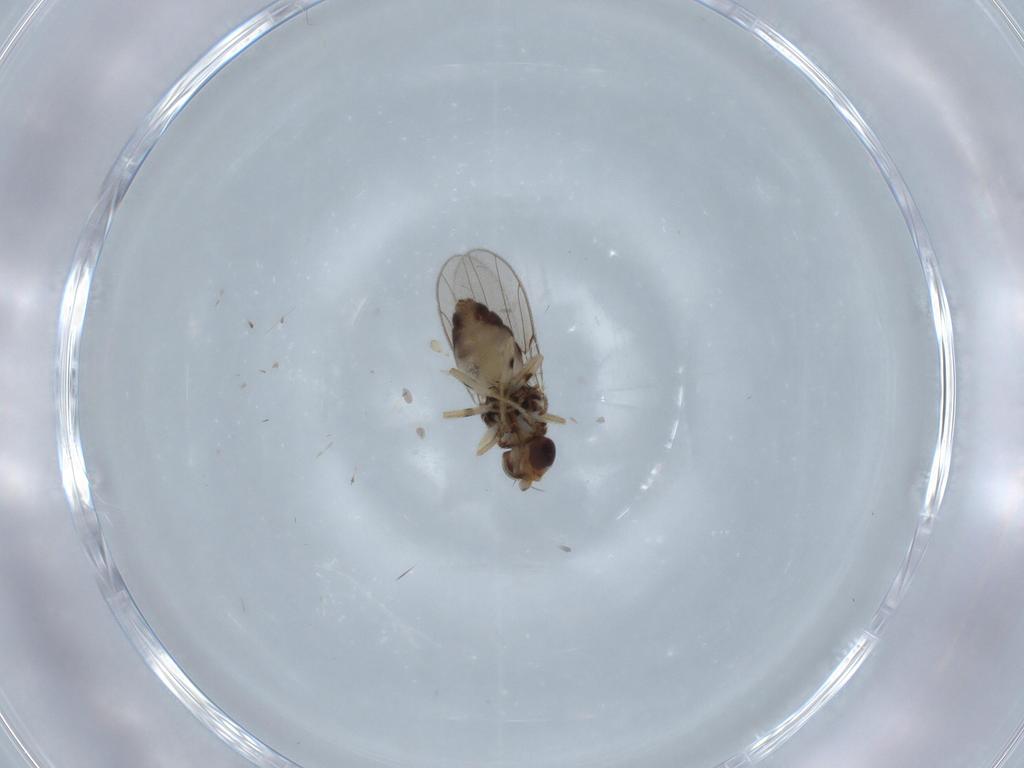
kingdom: Animalia
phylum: Arthropoda
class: Insecta
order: Diptera
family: Chloropidae
